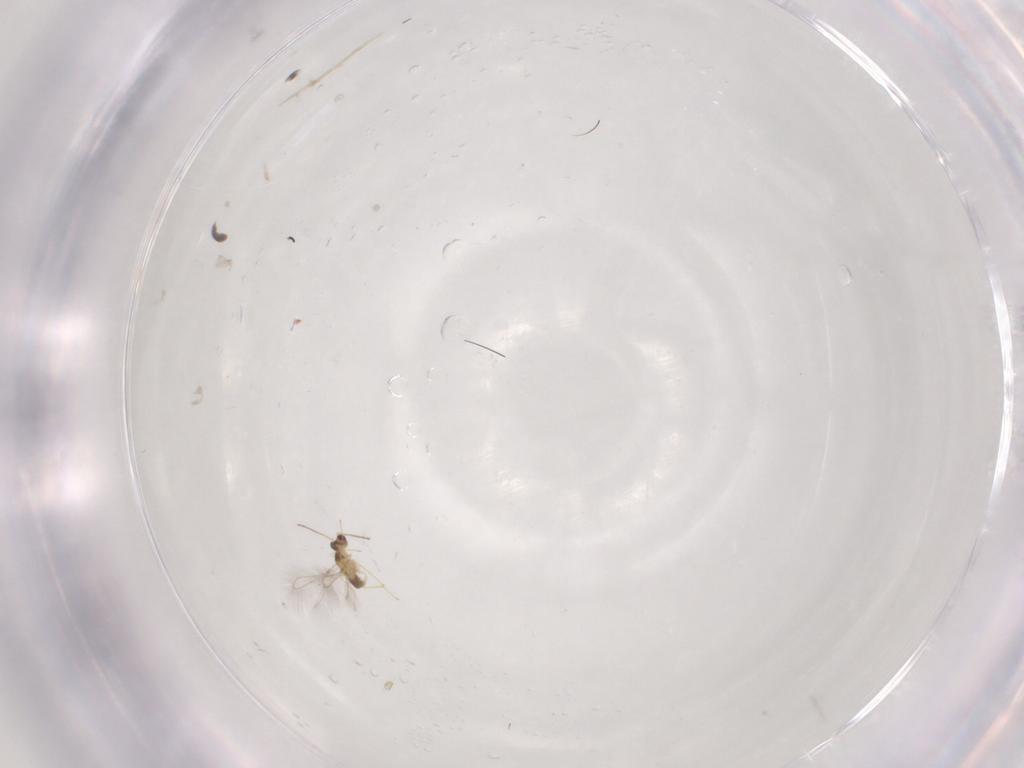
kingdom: Animalia
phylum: Arthropoda
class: Insecta
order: Hymenoptera
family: Mymaridae
